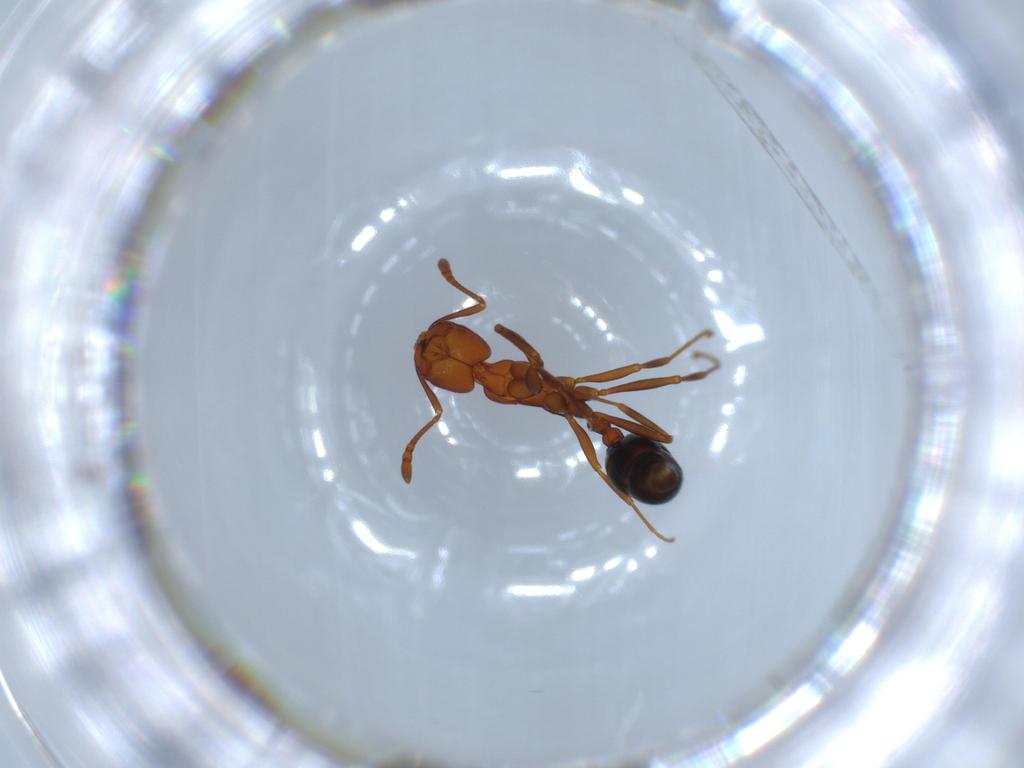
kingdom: Animalia
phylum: Arthropoda
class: Insecta
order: Hymenoptera
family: Formicidae
